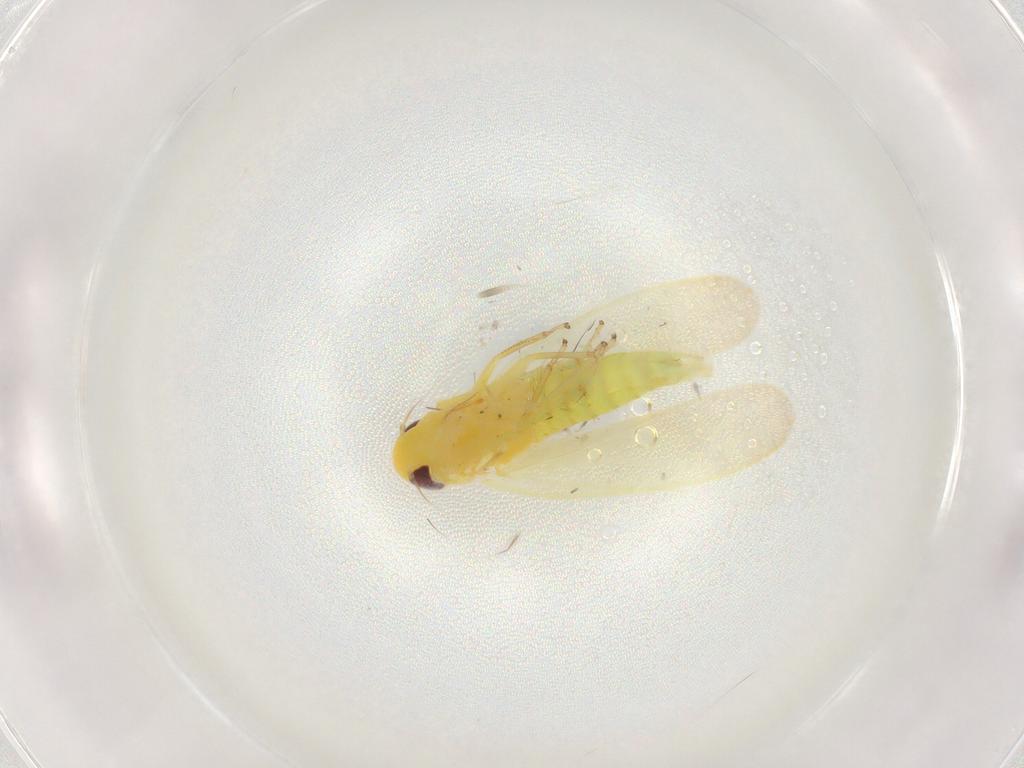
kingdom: Animalia
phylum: Arthropoda
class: Insecta
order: Hemiptera
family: Cicadellidae
